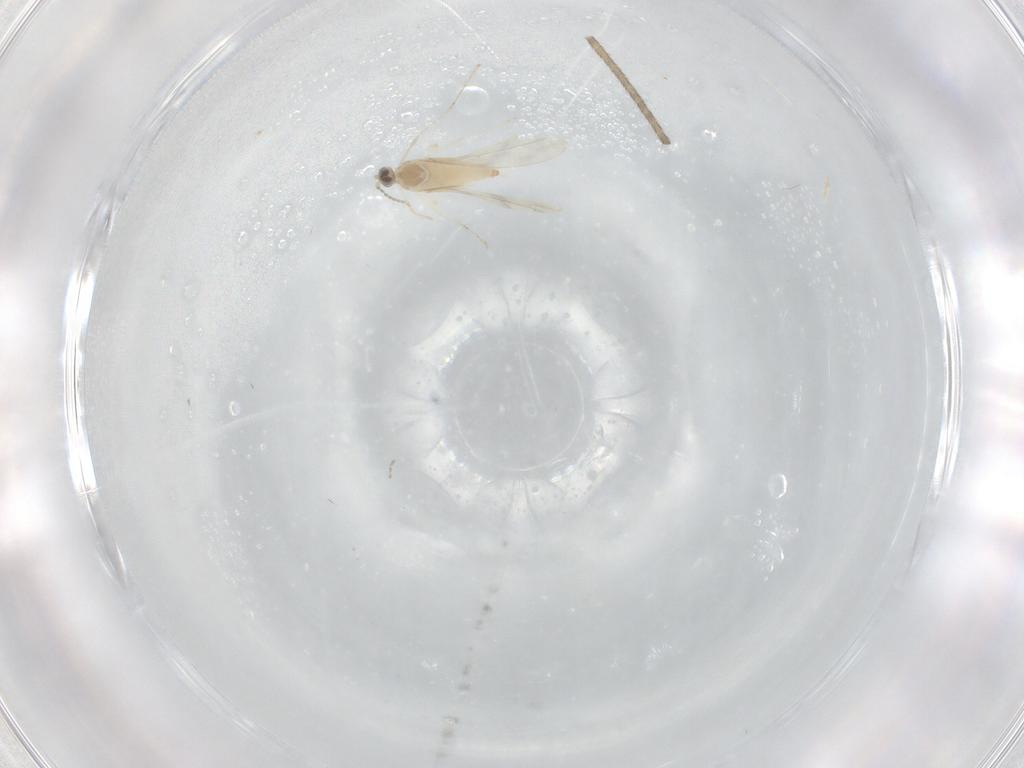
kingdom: Animalia
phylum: Arthropoda
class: Insecta
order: Diptera
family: Cecidomyiidae
